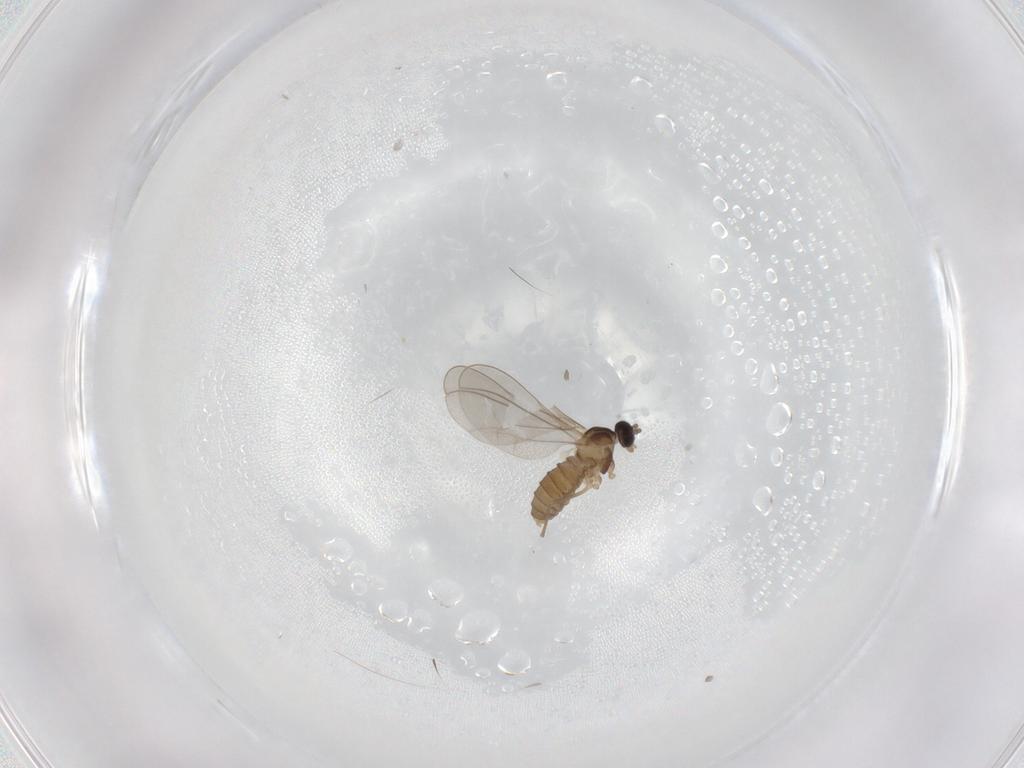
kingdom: Animalia
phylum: Arthropoda
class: Insecta
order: Diptera
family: Cecidomyiidae
